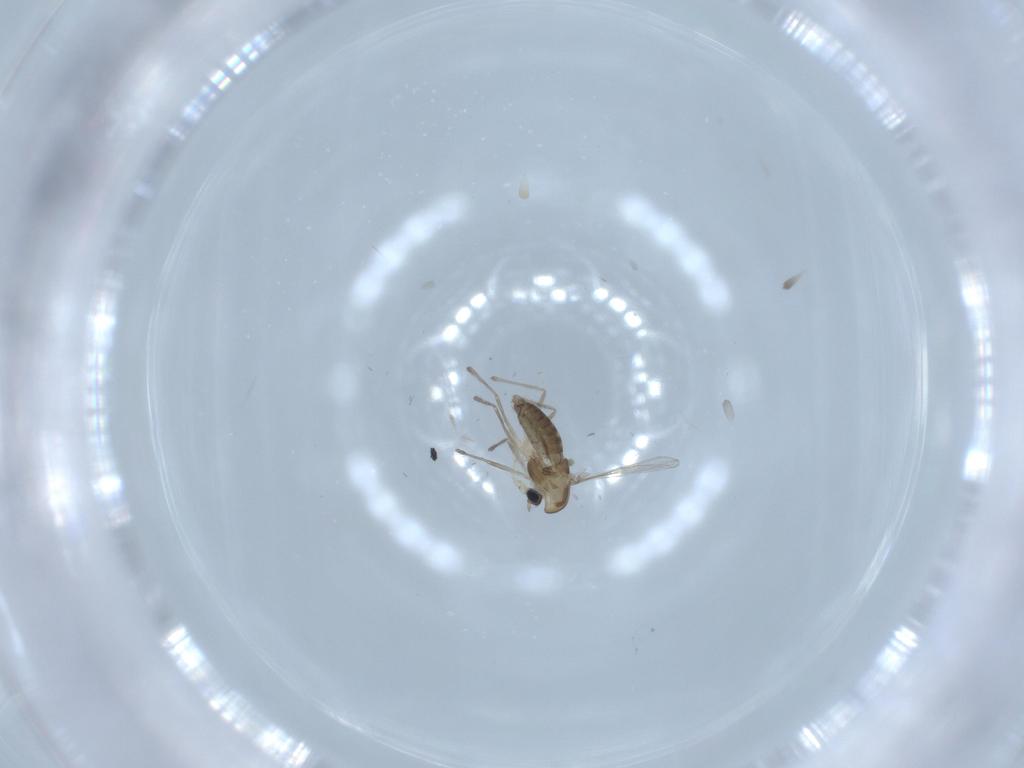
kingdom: Animalia
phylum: Arthropoda
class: Insecta
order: Diptera
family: Chironomidae
